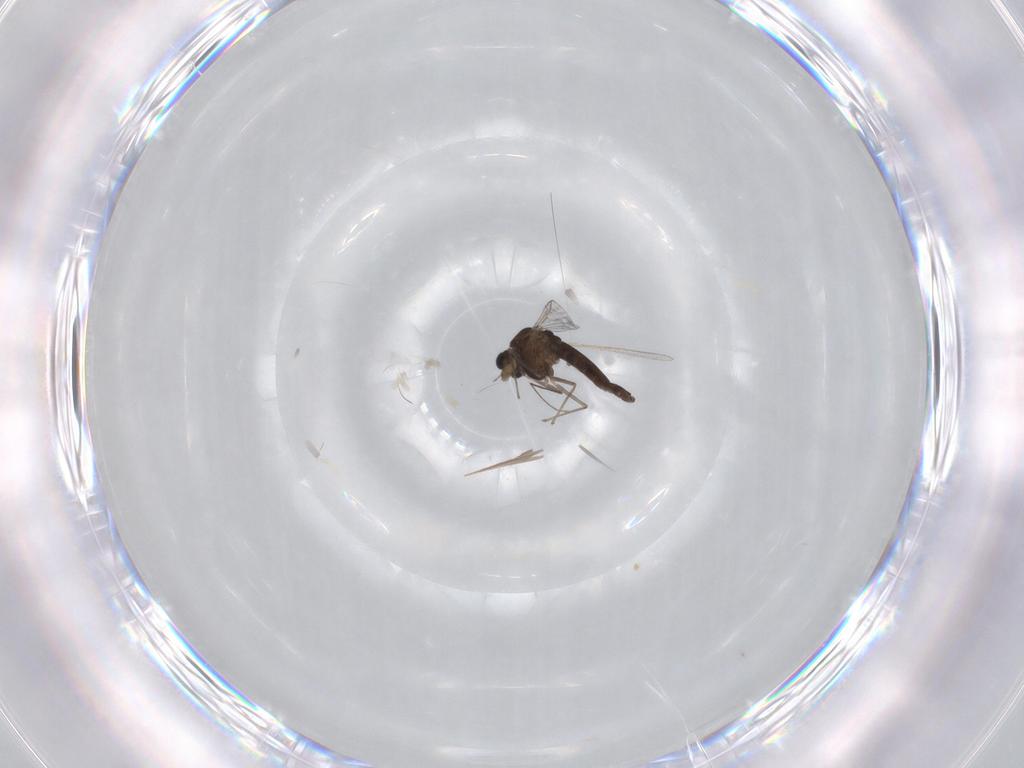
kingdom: Animalia
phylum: Arthropoda
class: Insecta
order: Diptera
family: Chironomidae
